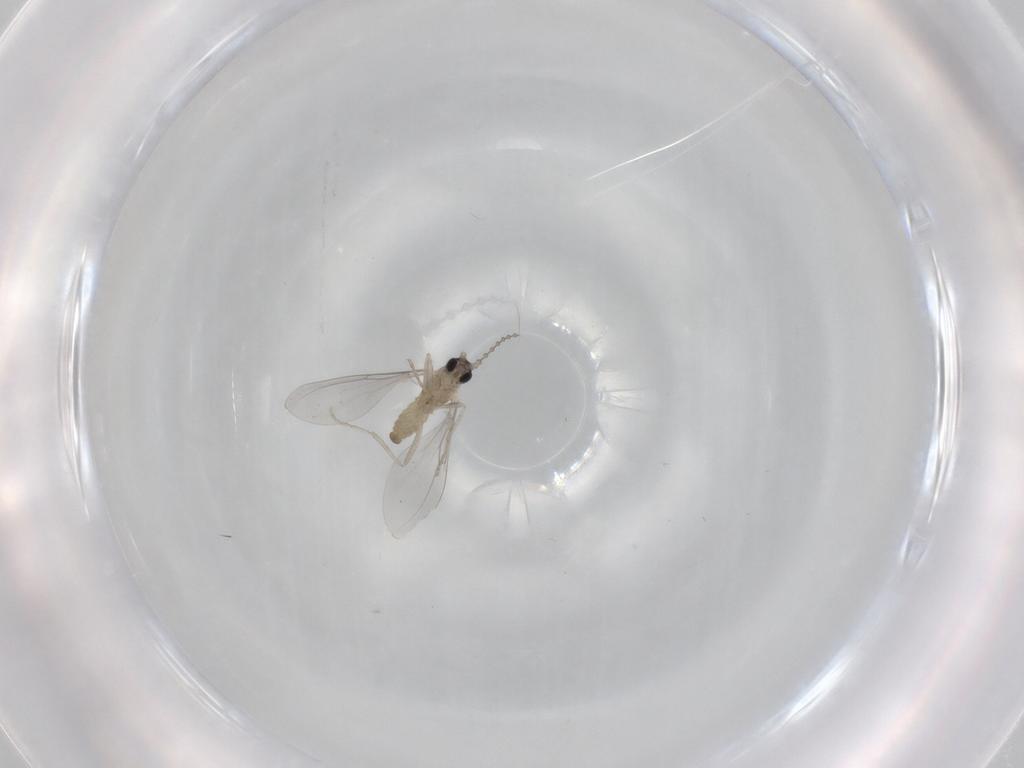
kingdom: Animalia
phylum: Arthropoda
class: Insecta
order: Diptera
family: Cecidomyiidae
